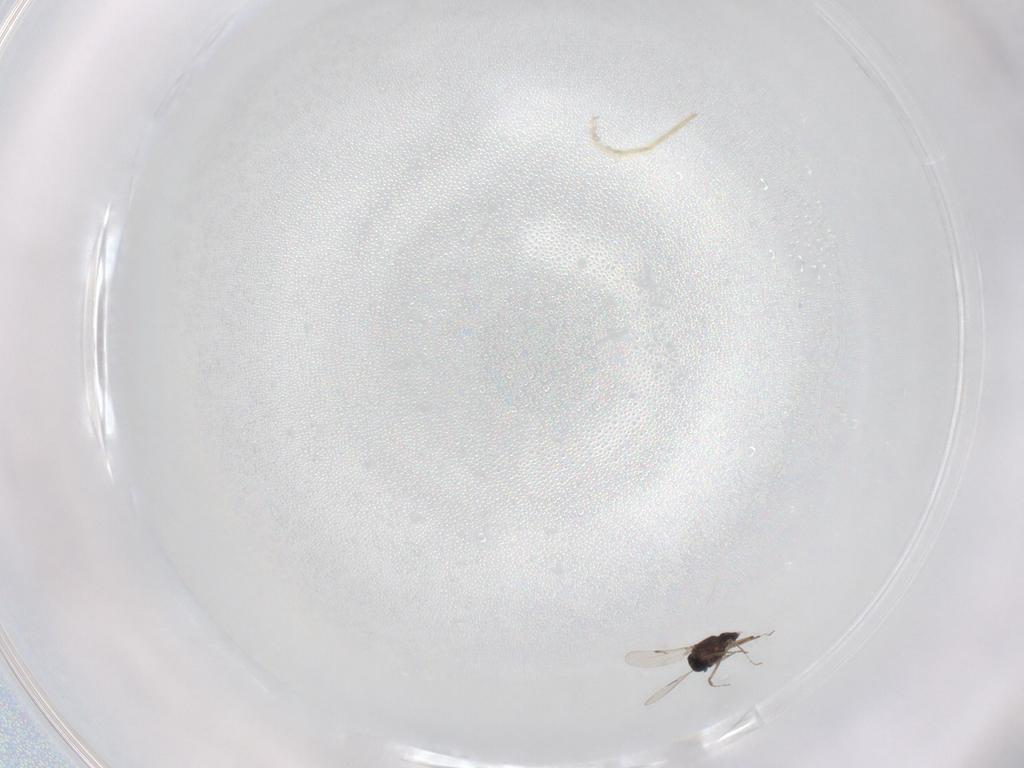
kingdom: Animalia
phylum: Arthropoda
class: Insecta
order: Diptera
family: Ceratopogonidae
